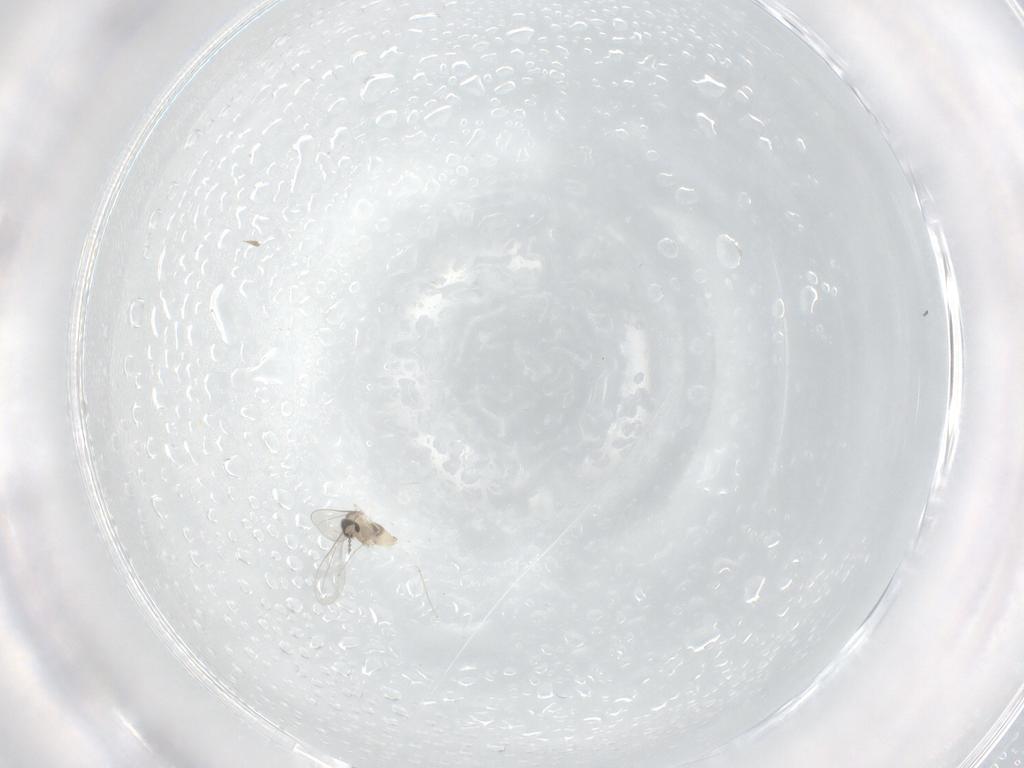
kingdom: Animalia
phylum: Arthropoda
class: Insecta
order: Diptera
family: Cecidomyiidae
